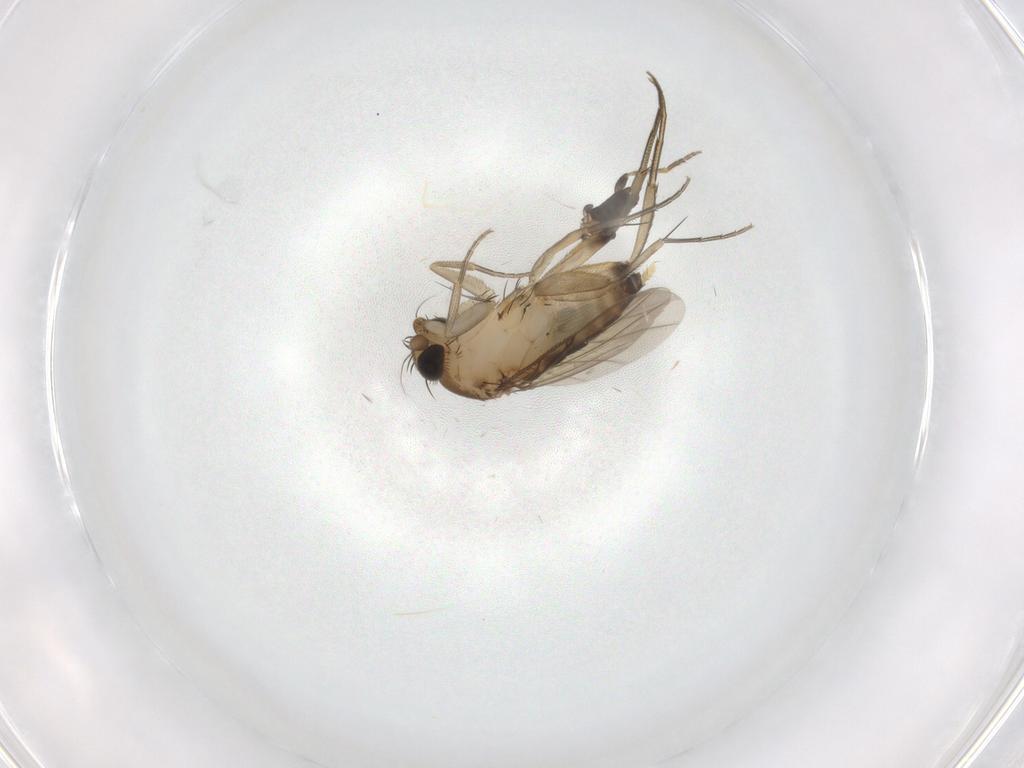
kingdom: Animalia
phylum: Arthropoda
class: Insecta
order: Diptera
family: Phoridae
